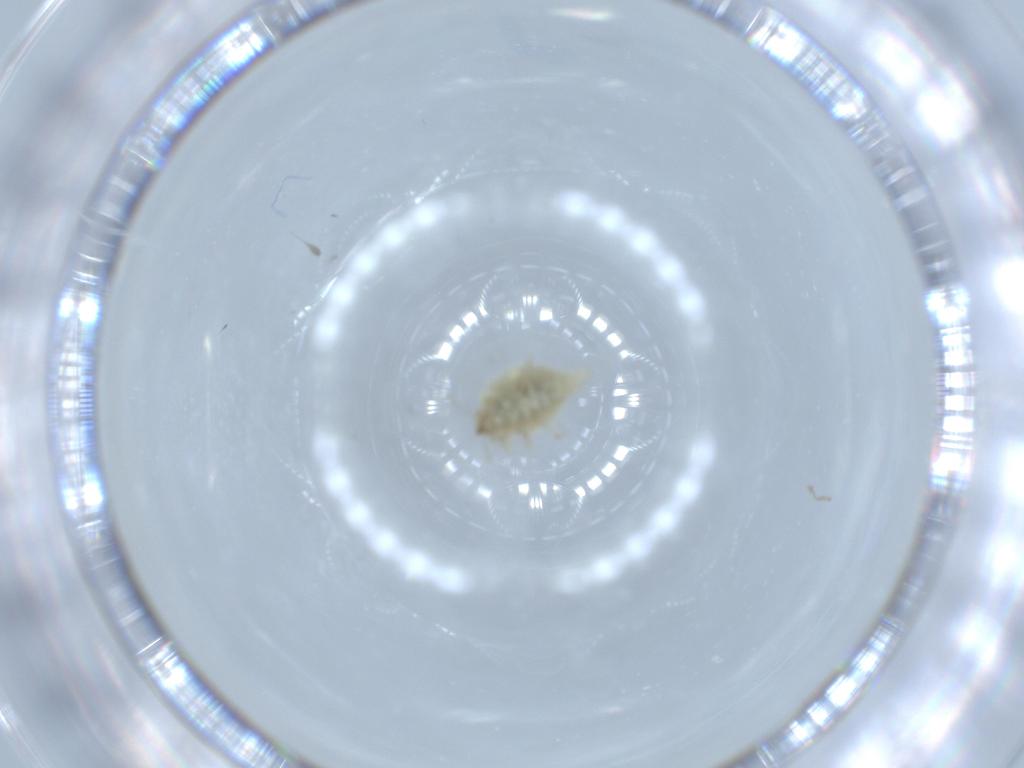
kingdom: Animalia
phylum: Arthropoda
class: Insecta
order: Neuroptera
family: Coniopterygidae
